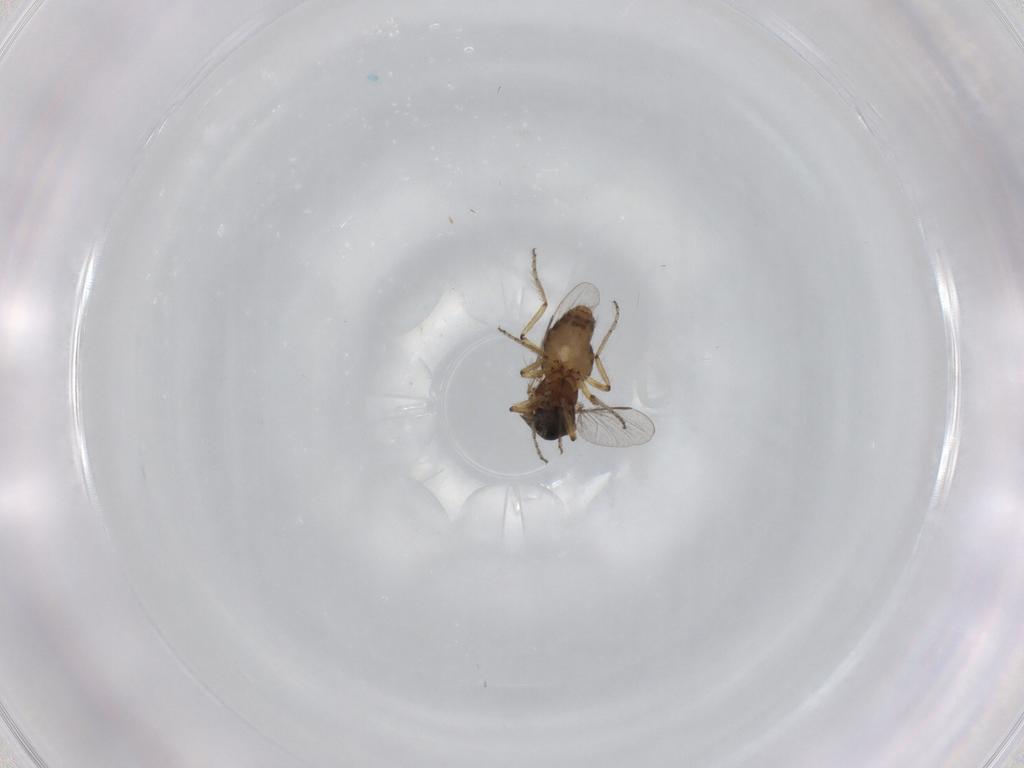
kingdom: Animalia
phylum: Arthropoda
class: Insecta
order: Diptera
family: Ceratopogonidae
